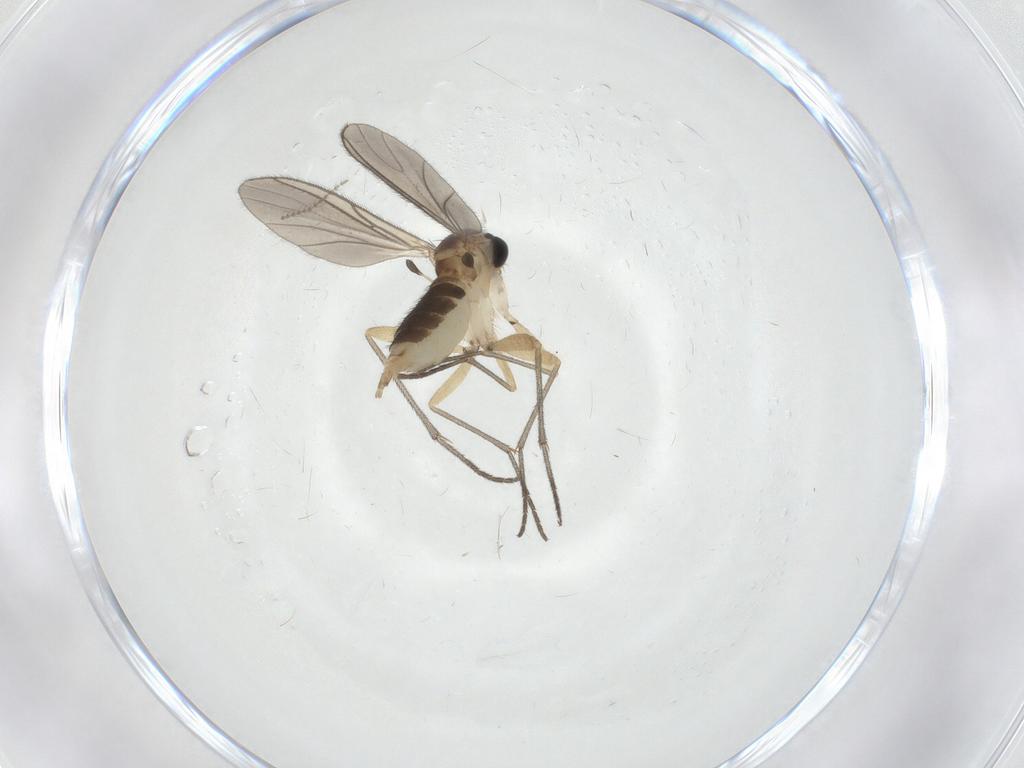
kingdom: Animalia
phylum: Arthropoda
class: Insecta
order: Diptera
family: Sciaridae
